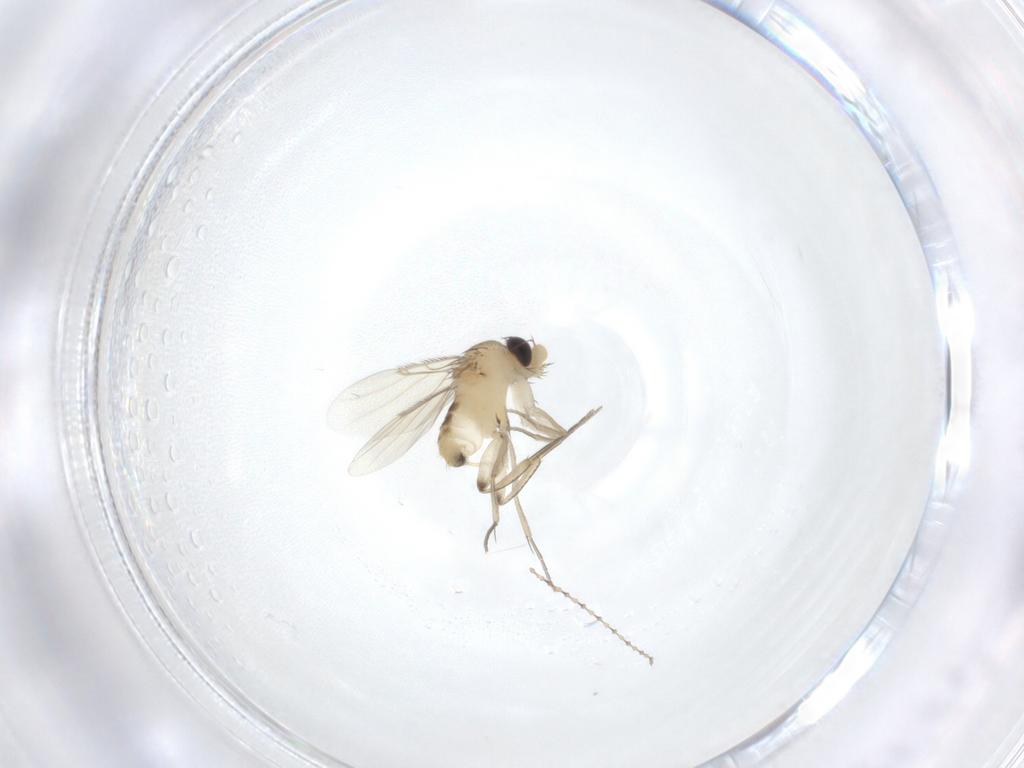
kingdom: Animalia
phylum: Arthropoda
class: Insecta
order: Diptera
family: Phoridae
